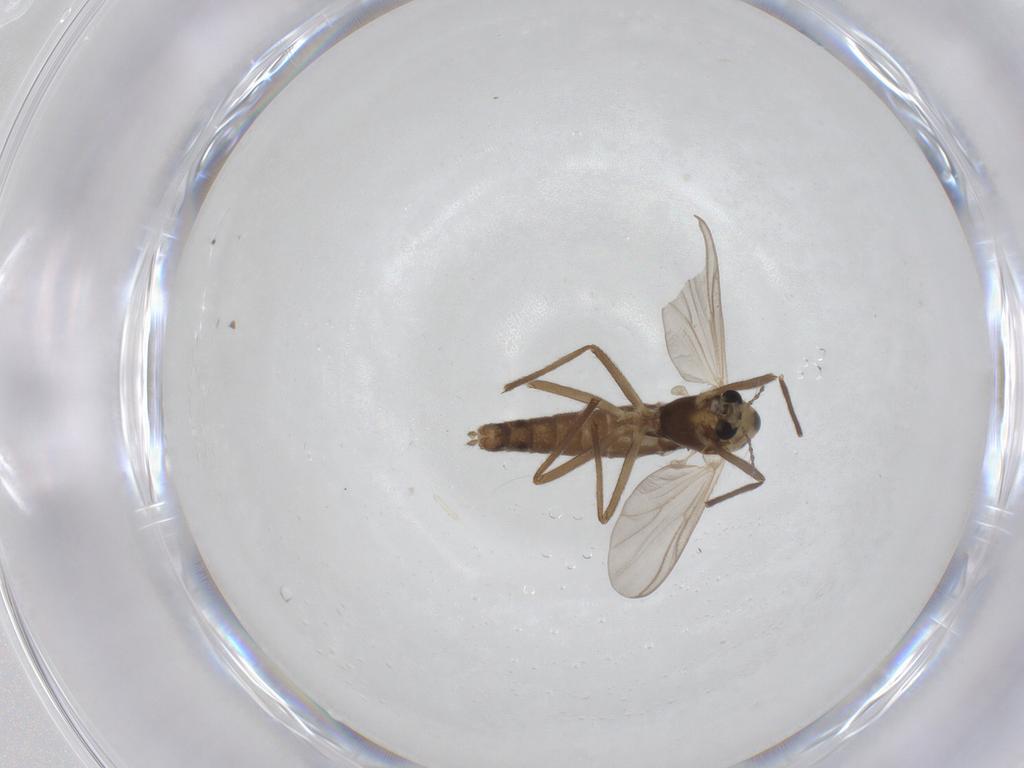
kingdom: Animalia
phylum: Arthropoda
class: Insecta
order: Diptera
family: Chironomidae
